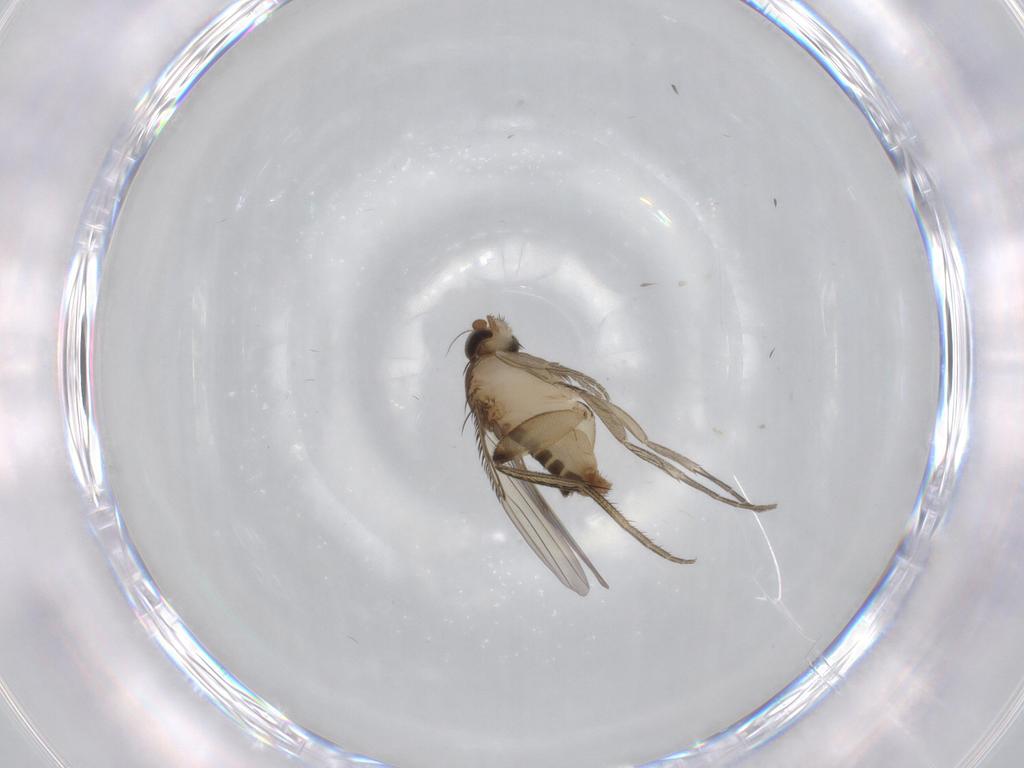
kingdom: Animalia
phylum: Arthropoda
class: Insecta
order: Diptera
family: Phoridae
